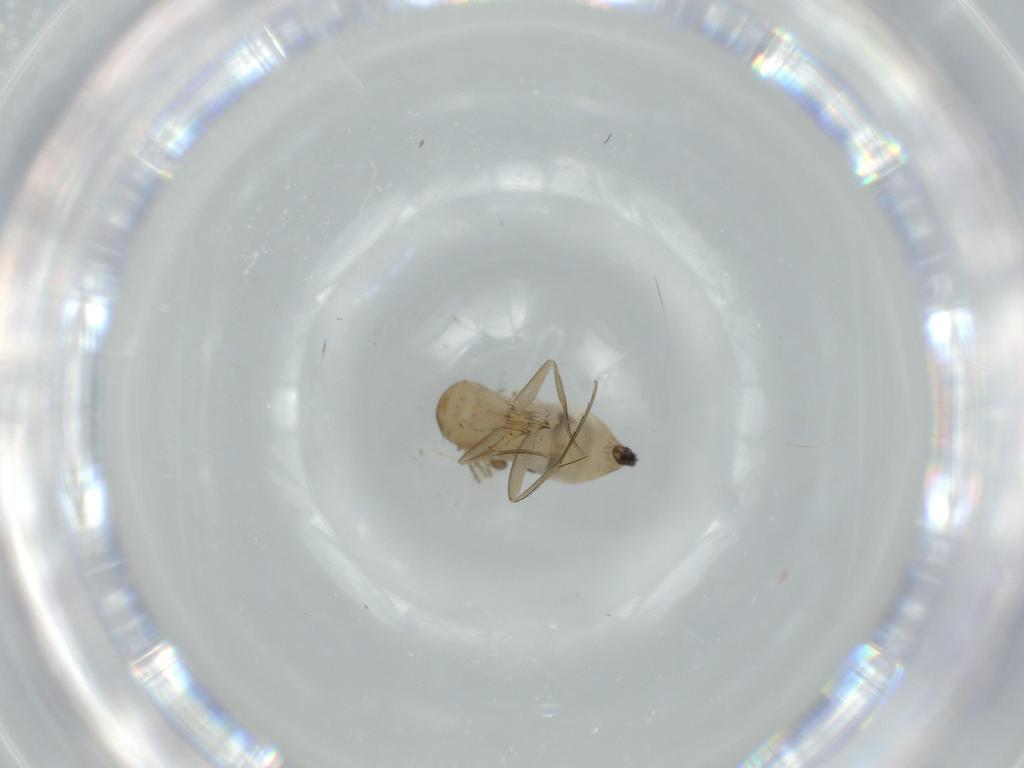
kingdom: Animalia
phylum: Arthropoda
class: Insecta
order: Diptera
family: Phoridae
